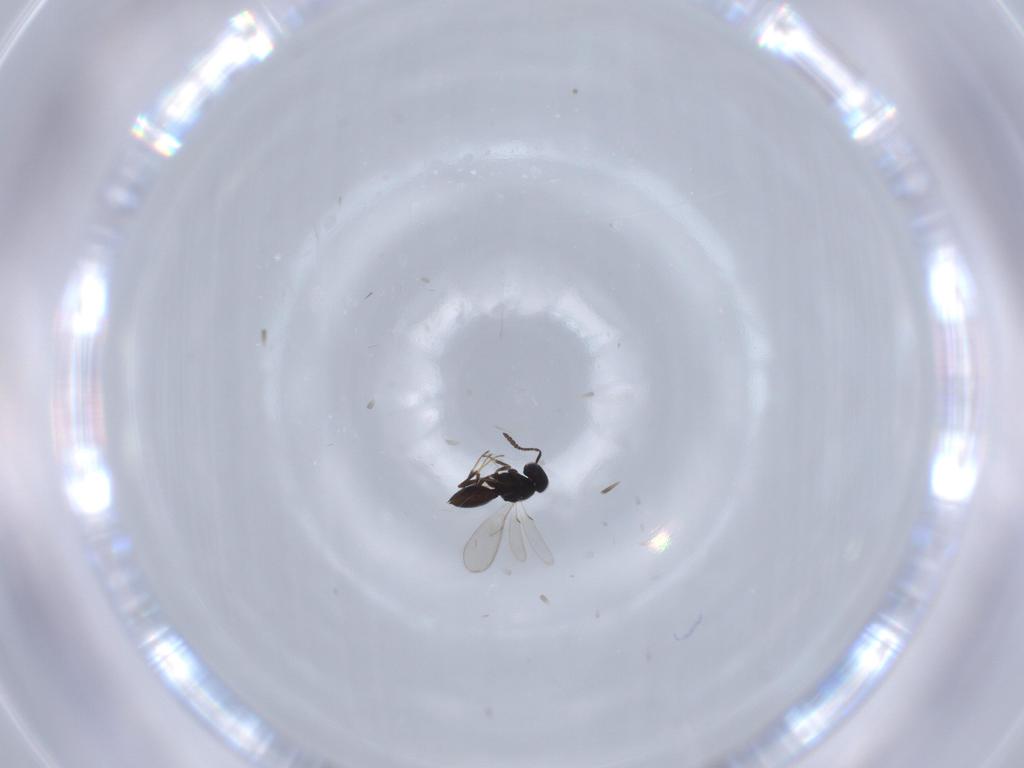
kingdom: Animalia
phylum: Arthropoda
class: Insecta
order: Hymenoptera
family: Scelionidae
